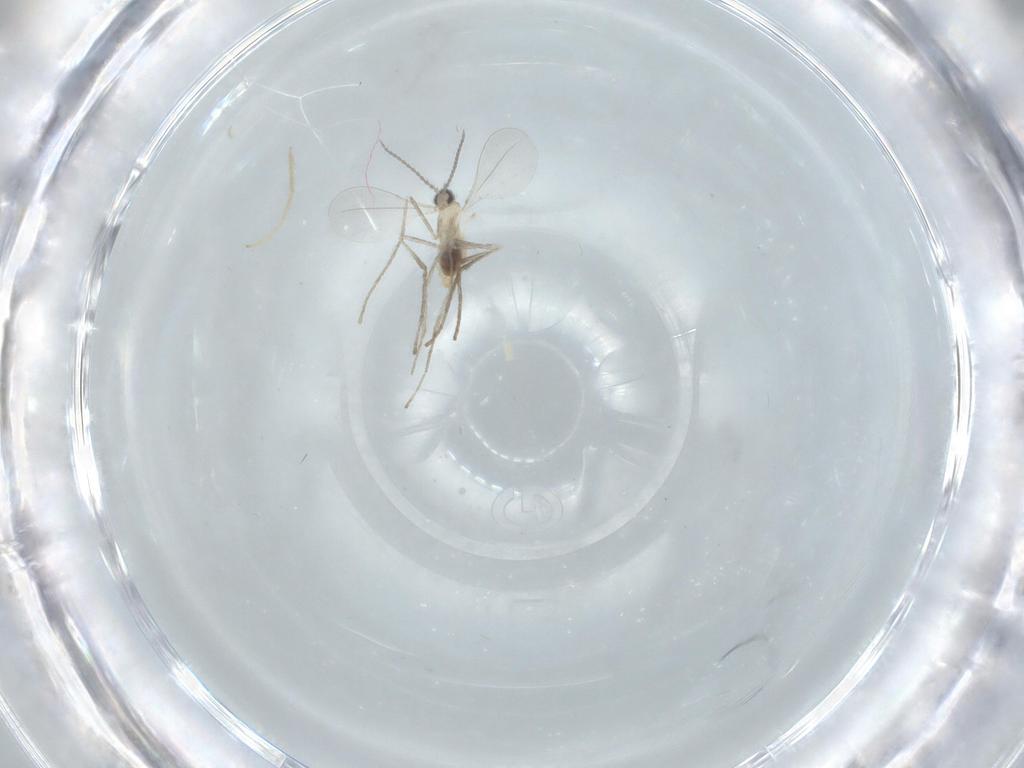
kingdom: Animalia
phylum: Arthropoda
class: Insecta
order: Diptera
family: Cecidomyiidae
